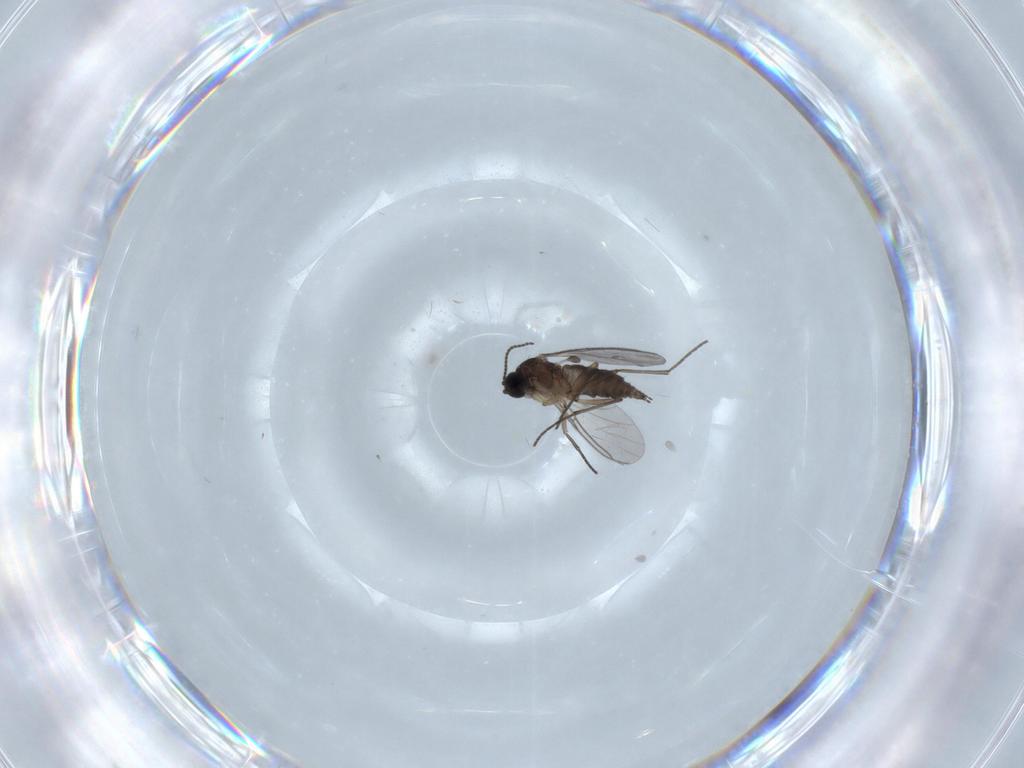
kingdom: Animalia
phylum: Arthropoda
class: Insecta
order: Diptera
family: Sciaridae
